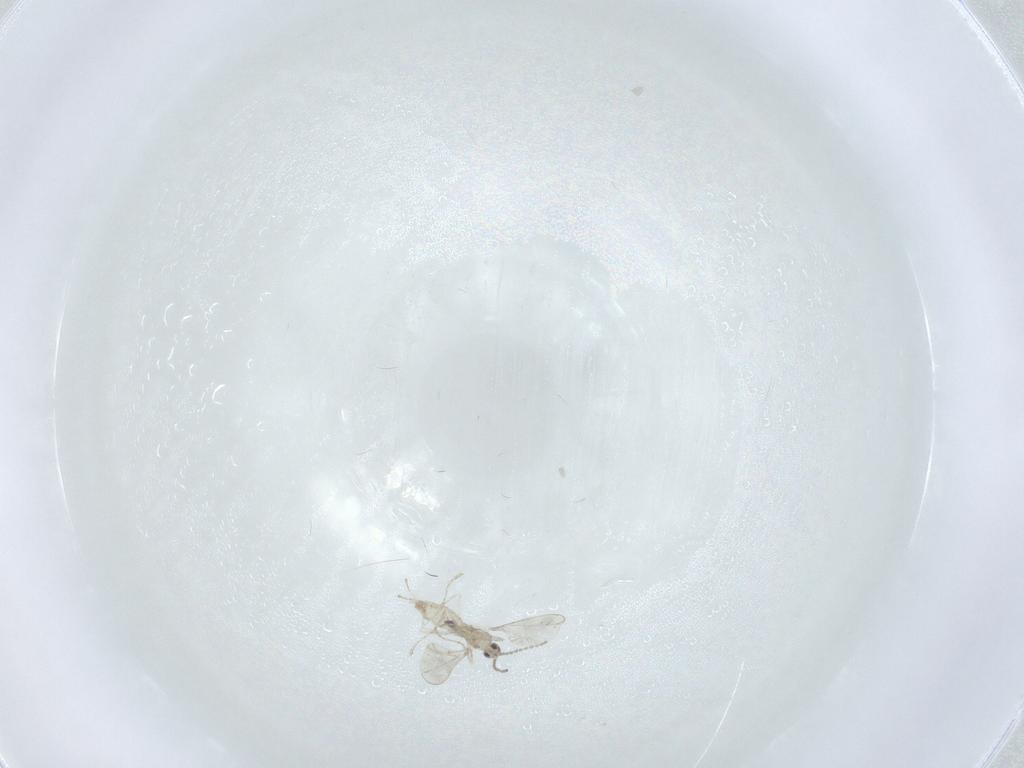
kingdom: Animalia
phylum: Arthropoda
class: Insecta
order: Diptera
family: Cecidomyiidae
